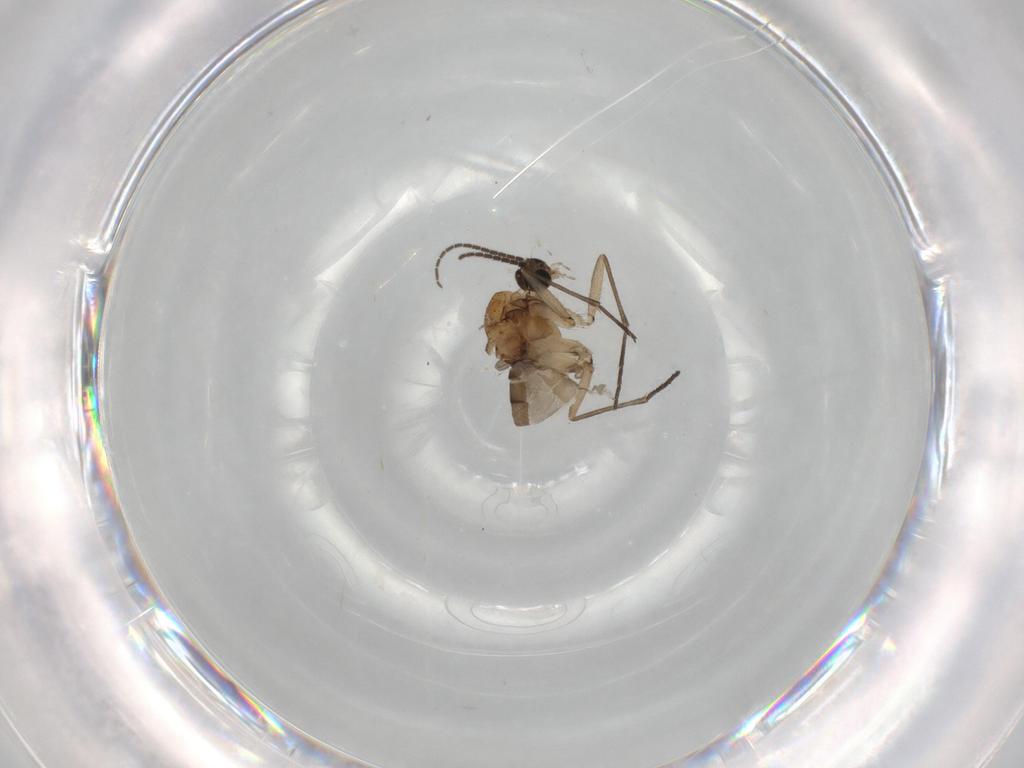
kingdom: Animalia
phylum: Arthropoda
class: Insecta
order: Diptera
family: Sciaridae
